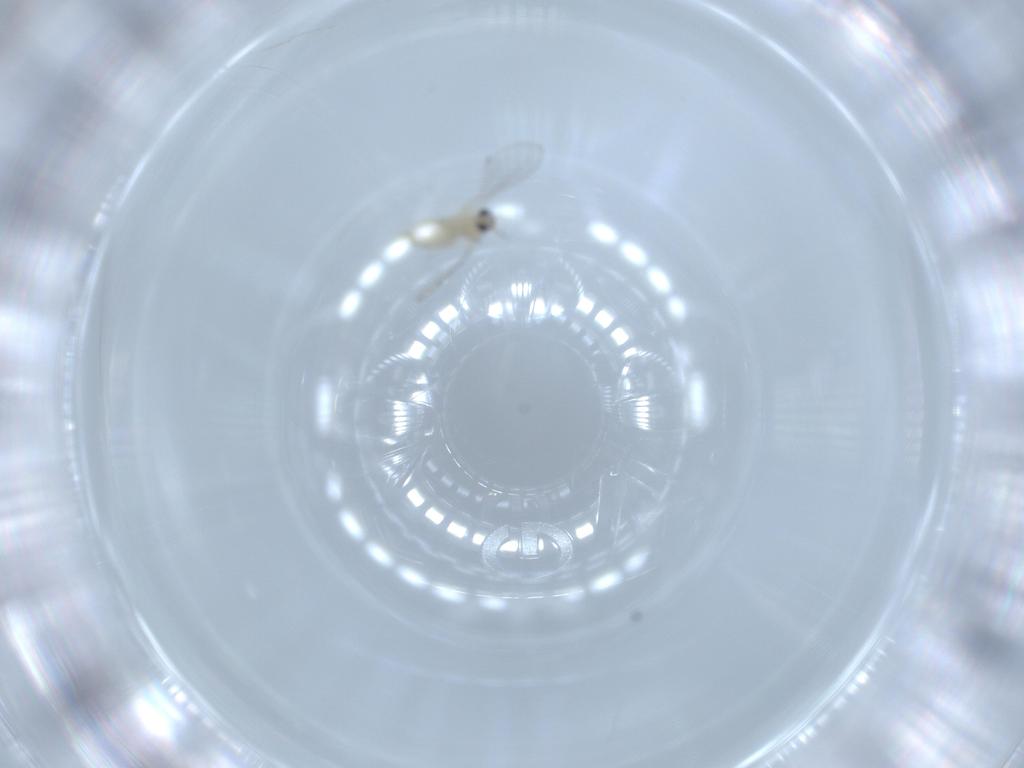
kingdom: Animalia
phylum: Arthropoda
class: Insecta
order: Diptera
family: Cecidomyiidae
